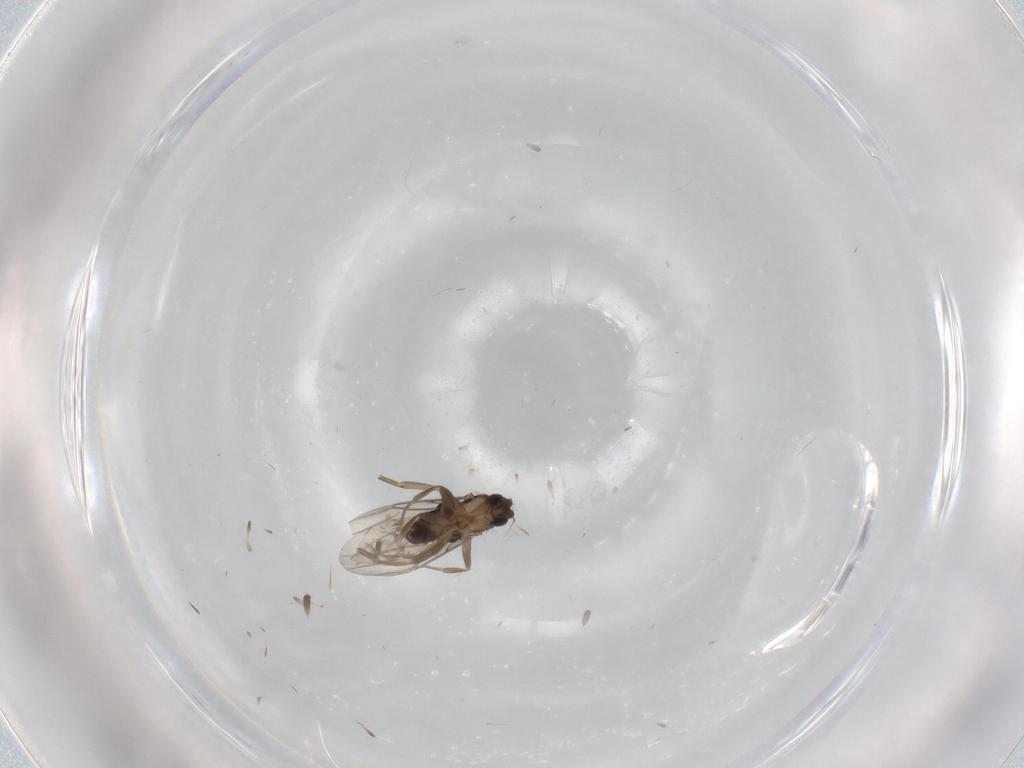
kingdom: Animalia
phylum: Arthropoda
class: Insecta
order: Diptera
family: Phoridae
